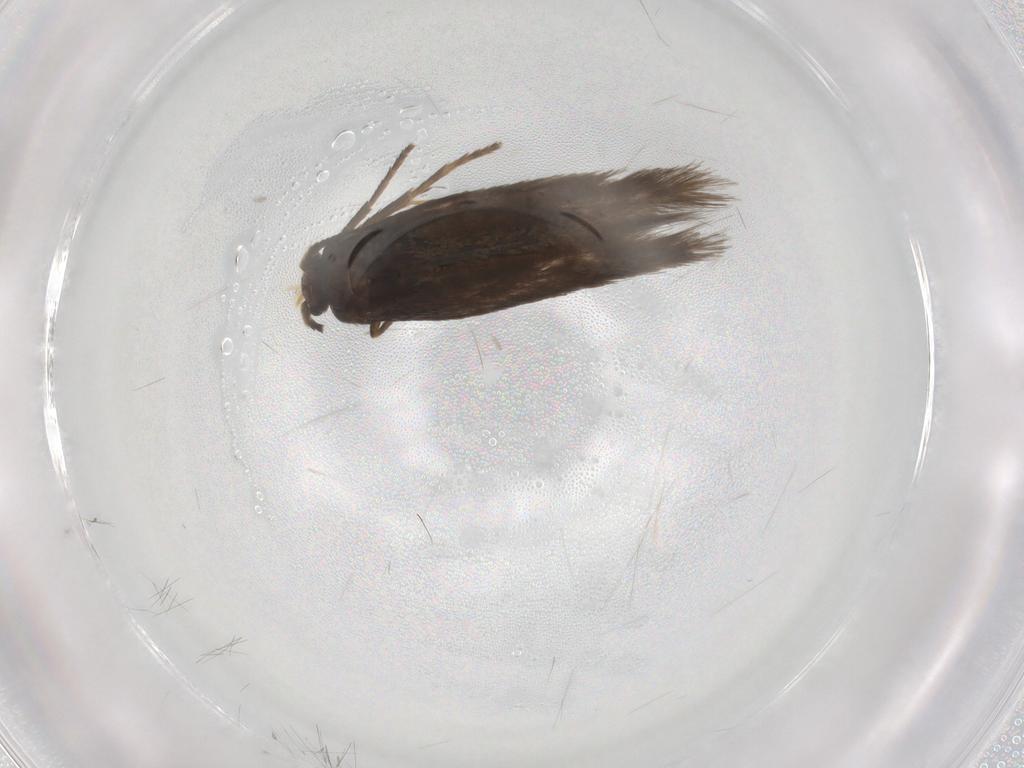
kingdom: Animalia
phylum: Arthropoda
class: Insecta
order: Lepidoptera
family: Nepticulidae
